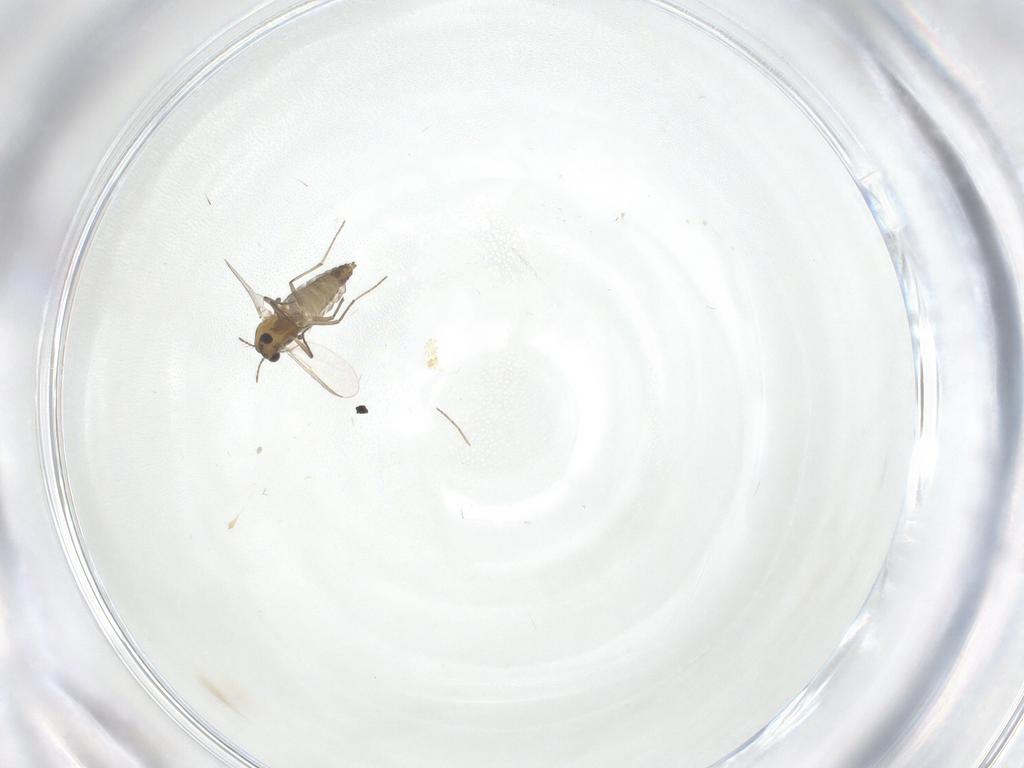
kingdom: Animalia
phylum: Arthropoda
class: Insecta
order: Diptera
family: Chironomidae
